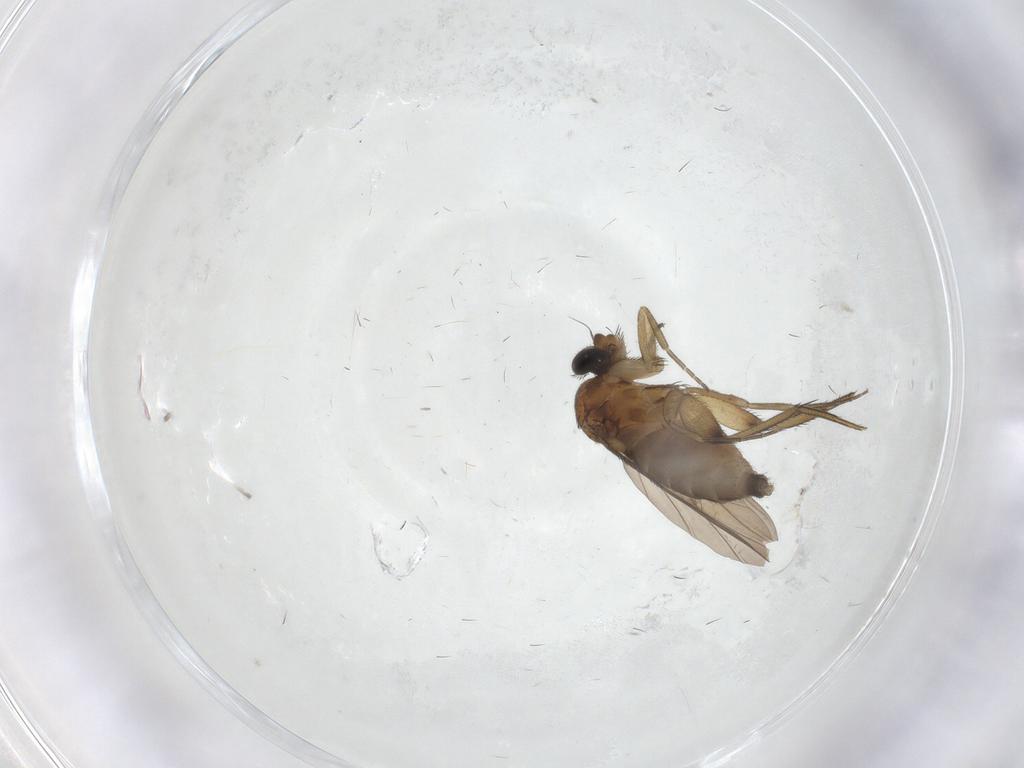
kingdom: Animalia
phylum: Arthropoda
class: Insecta
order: Diptera
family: Phoridae
